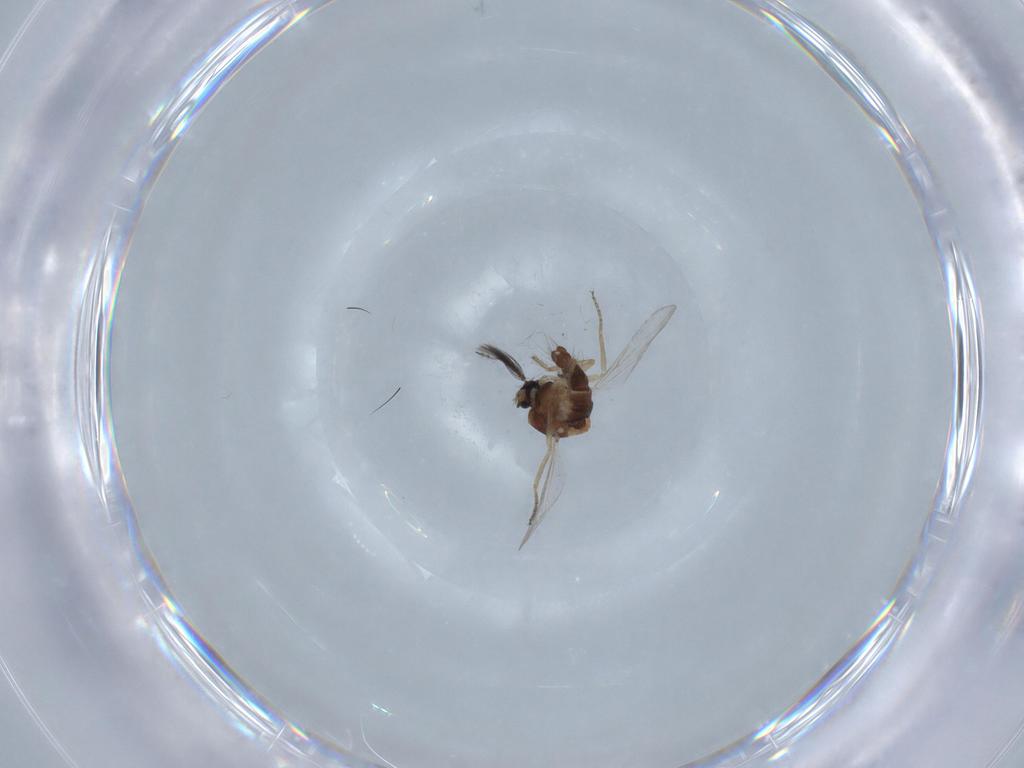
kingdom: Animalia
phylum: Arthropoda
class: Insecta
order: Diptera
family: Ceratopogonidae
